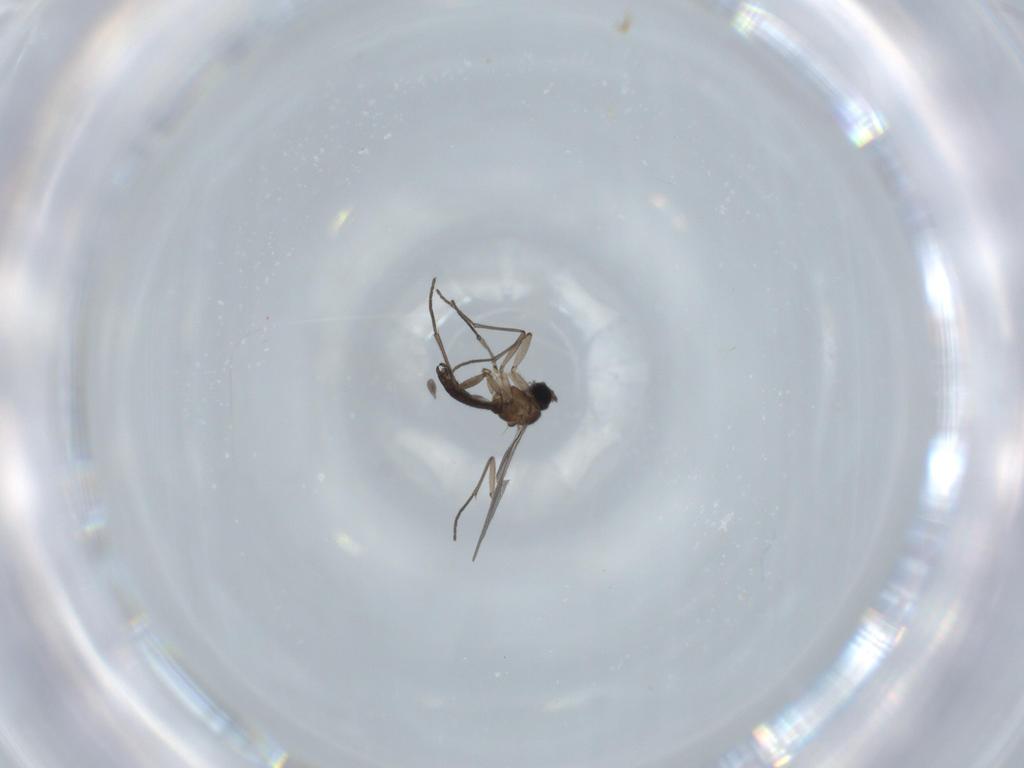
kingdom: Animalia
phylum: Arthropoda
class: Insecta
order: Diptera
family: Sciaridae
